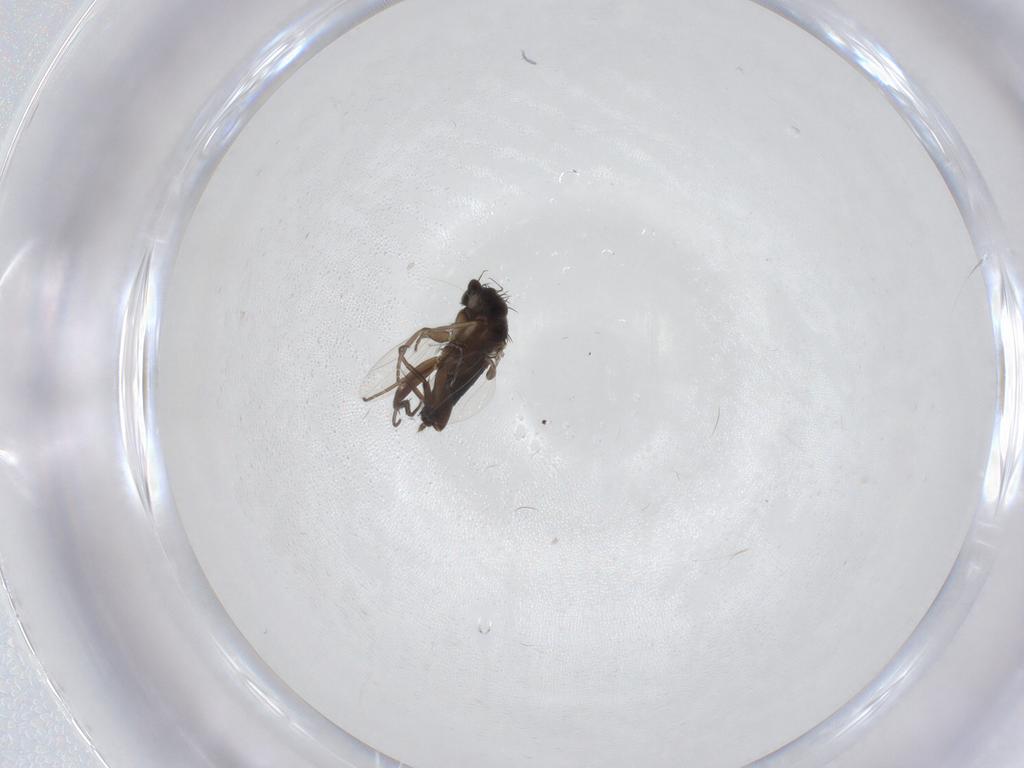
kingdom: Animalia
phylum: Arthropoda
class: Insecta
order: Diptera
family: Phoridae
